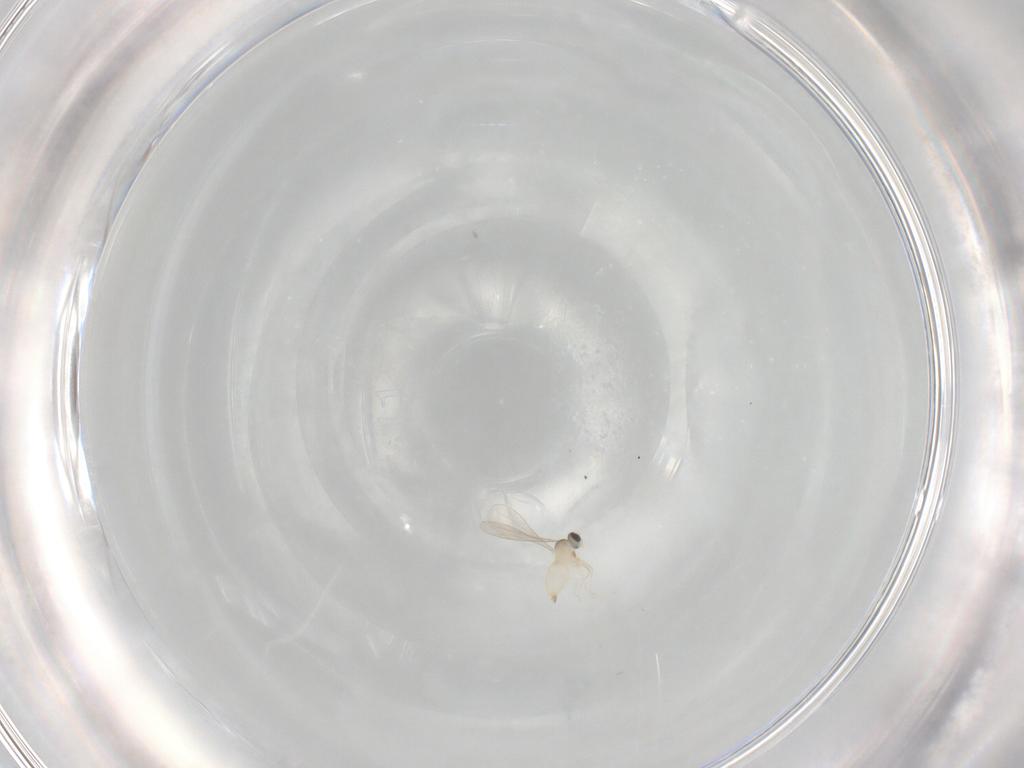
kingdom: Animalia
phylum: Arthropoda
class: Insecta
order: Diptera
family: Cecidomyiidae
